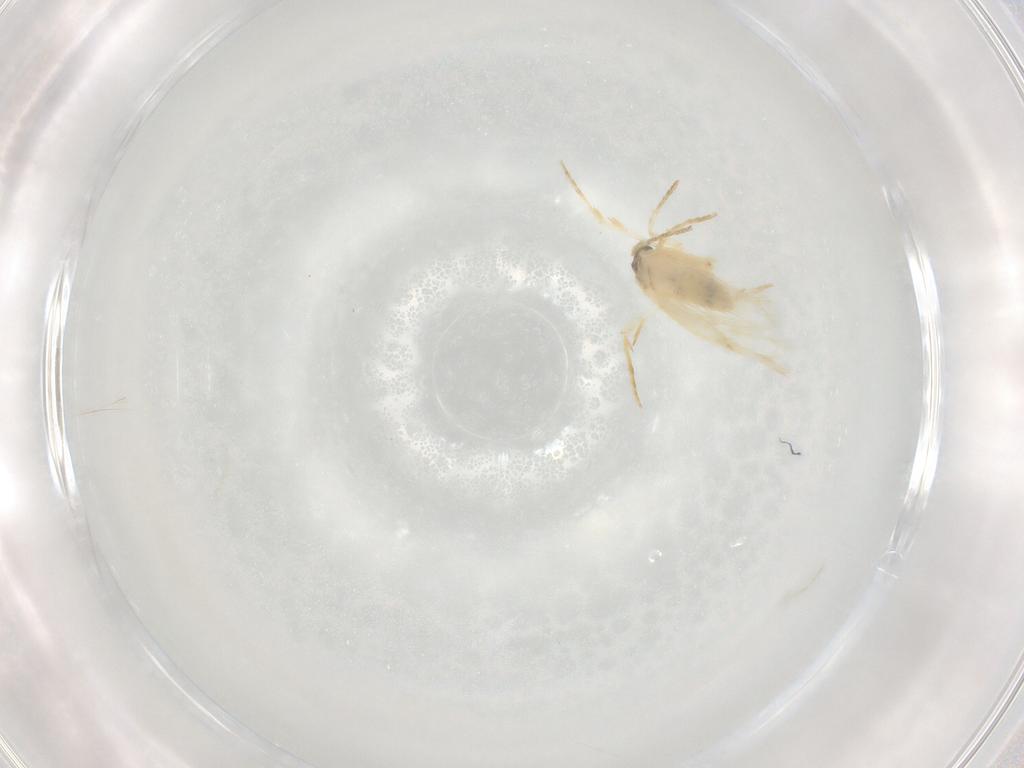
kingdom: Animalia
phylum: Arthropoda
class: Insecta
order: Lepidoptera
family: Nepticulidae
